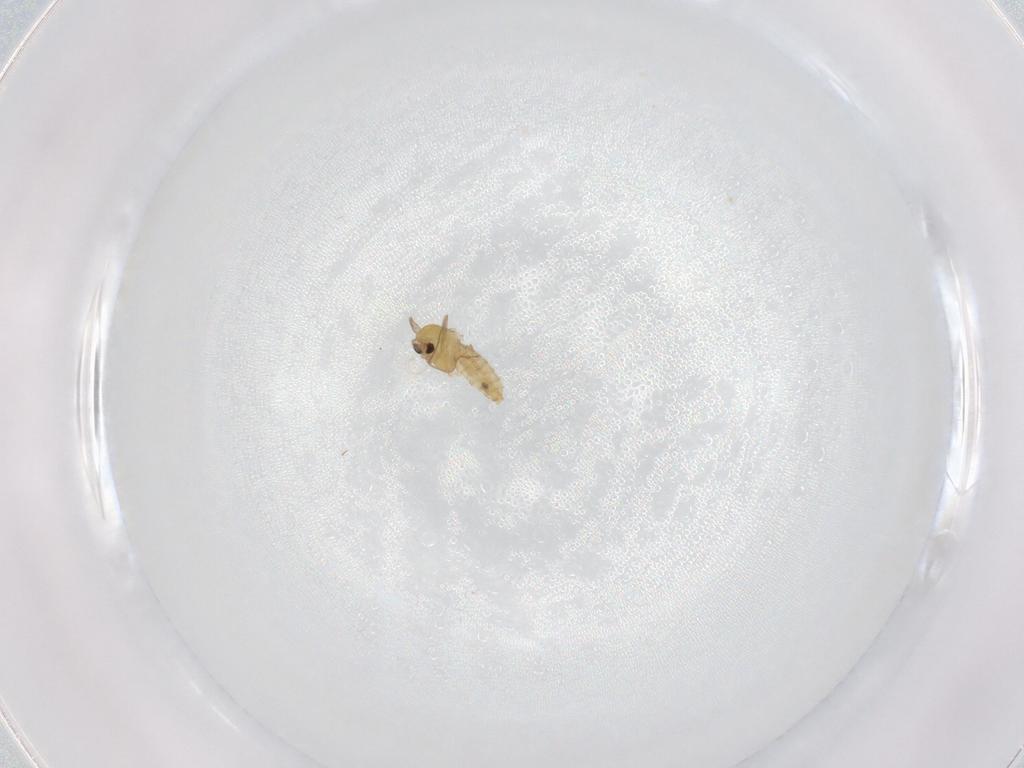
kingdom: Animalia
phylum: Arthropoda
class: Insecta
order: Diptera
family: Chironomidae
